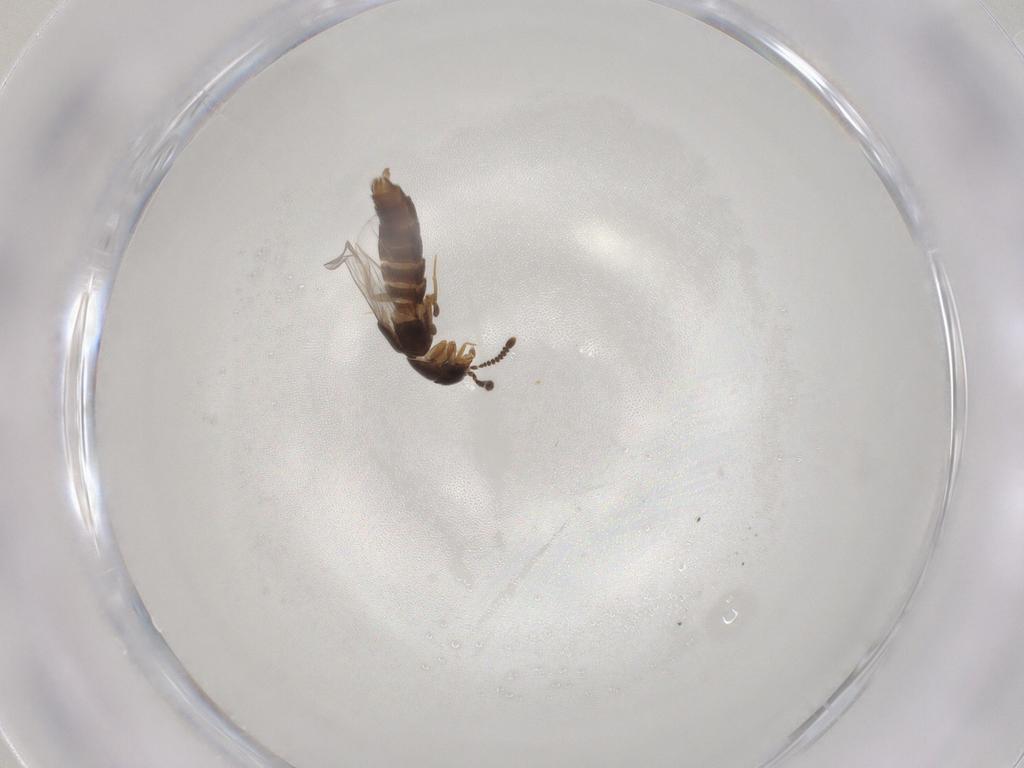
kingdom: Animalia
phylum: Arthropoda
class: Insecta
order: Coleoptera
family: Staphylinidae
